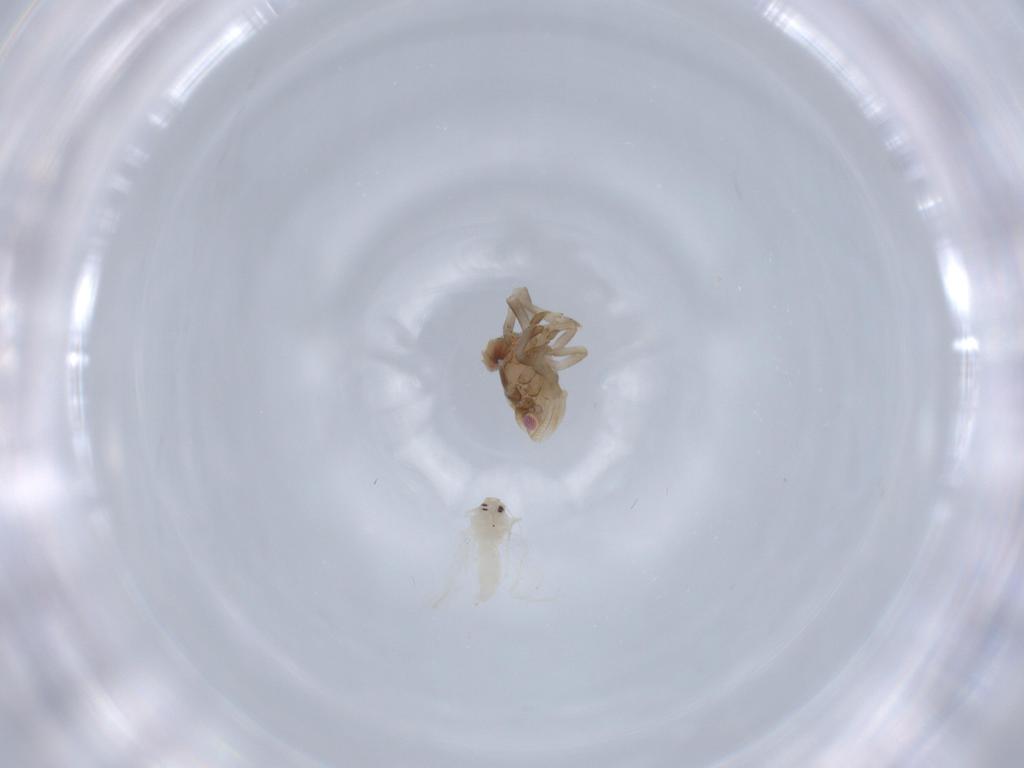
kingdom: Animalia
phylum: Arthropoda
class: Insecta
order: Hemiptera
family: Aleyrodidae
